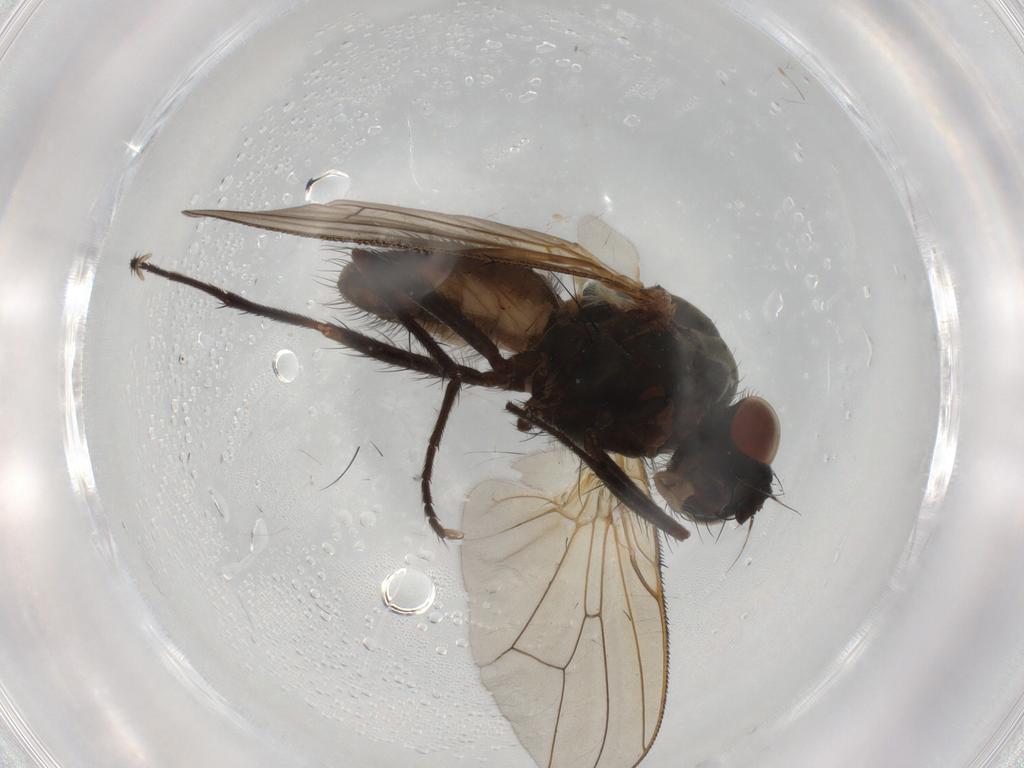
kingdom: Animalia
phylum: Arthropoda
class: Insecta
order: Diptera
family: Anthomyiidae
